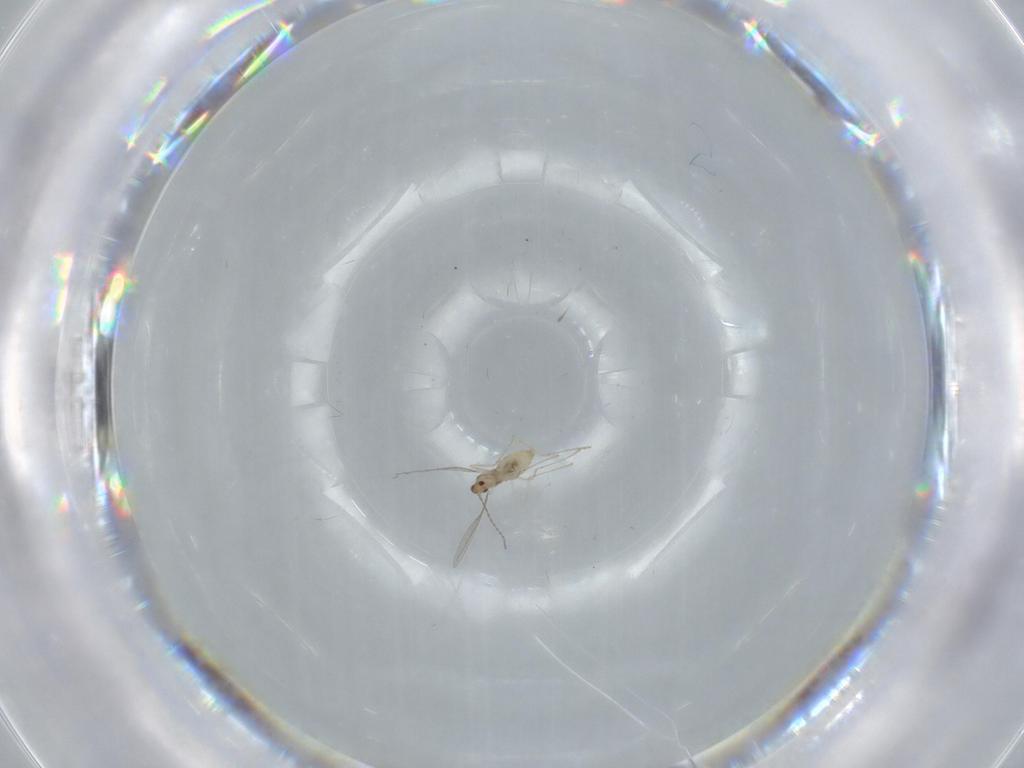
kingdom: Animalia
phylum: Arthropoda
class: Insecta
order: Diptera
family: Cecidomyiidae
